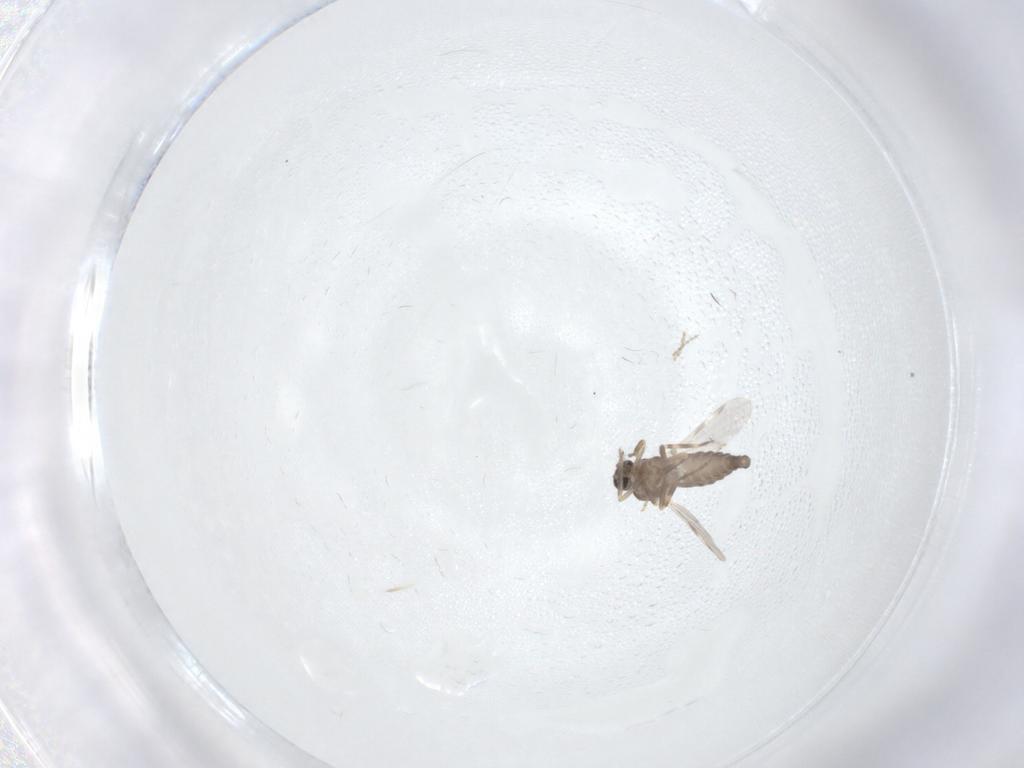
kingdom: Animalia
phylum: Arthropoda
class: Insecta
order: Diptera
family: Ceratopogonidae
